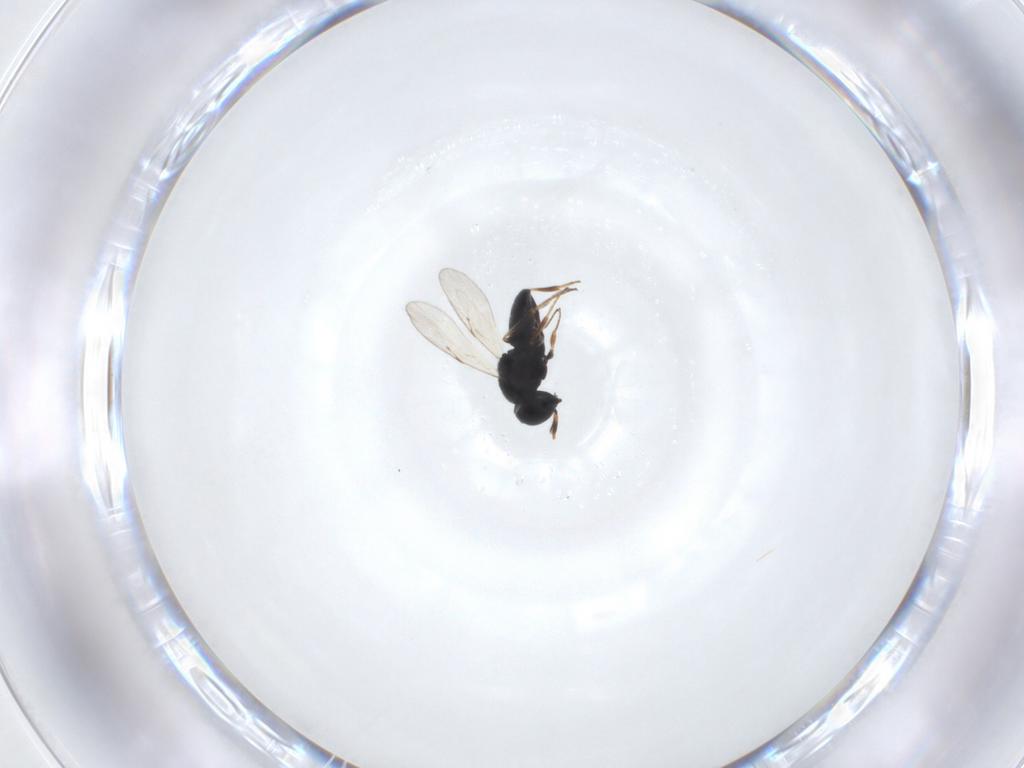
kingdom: Animalia
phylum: Arthropoda
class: Insecta
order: Hymenoptera
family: Scelionidae
